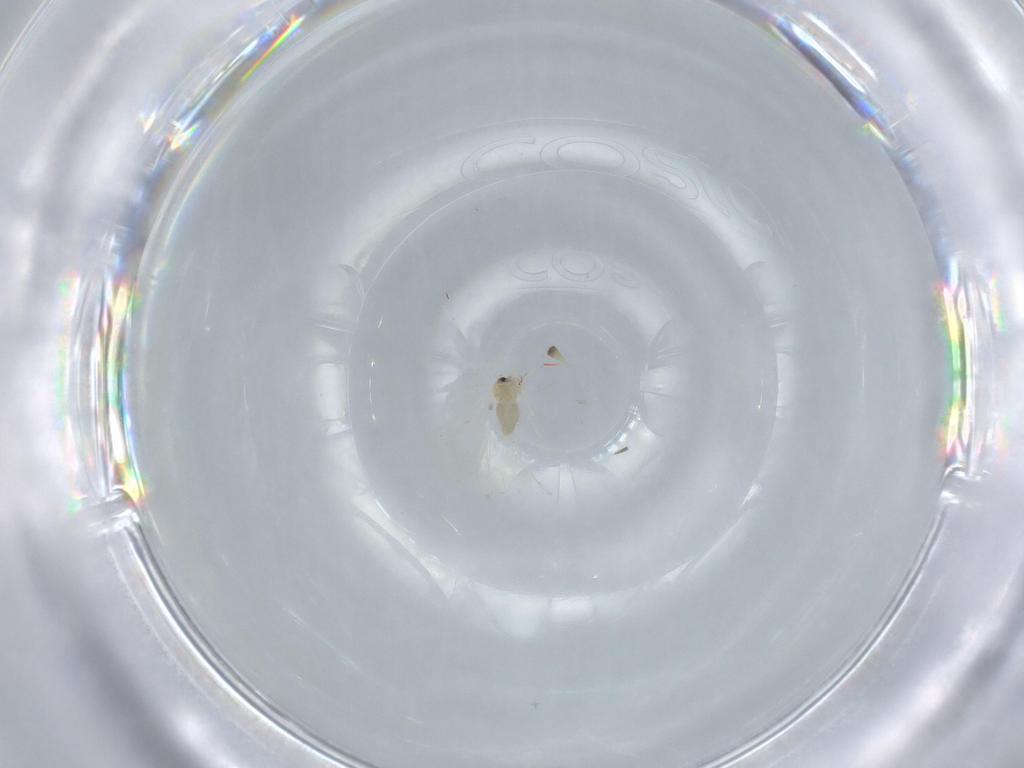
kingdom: Animalia
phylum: Arthropoda
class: Insecta
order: Hemiptera
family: Aleyrodidae
